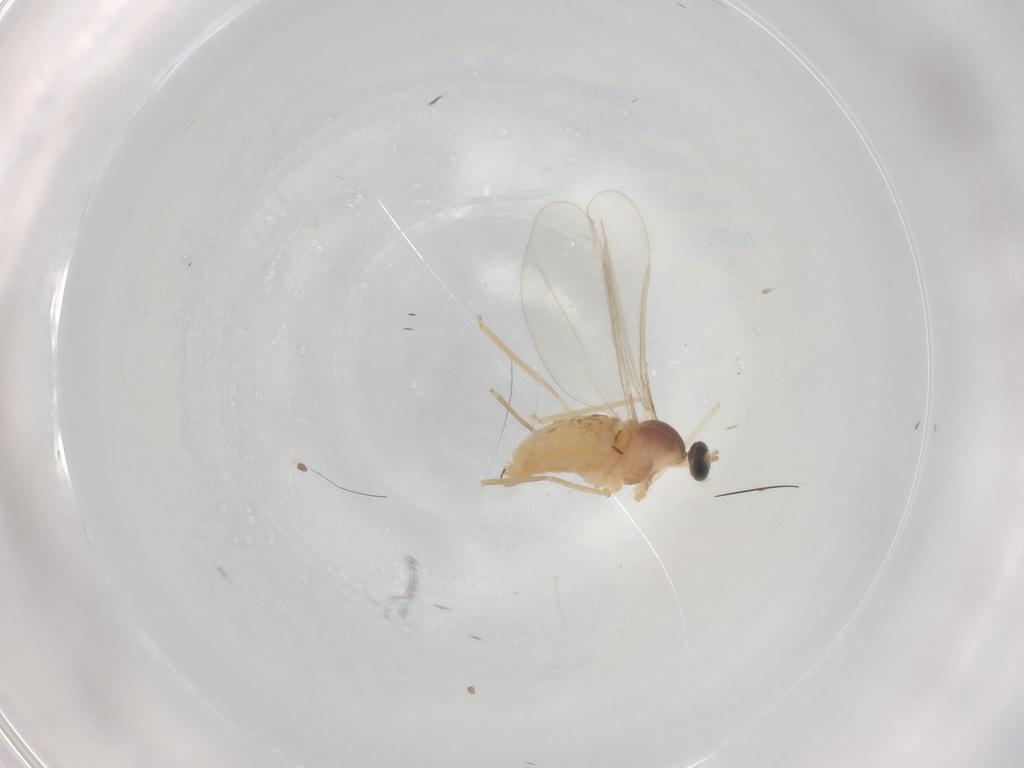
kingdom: Animalia
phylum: Arthropoda
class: Insecta
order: Diptera
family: Cecidomyiidae
